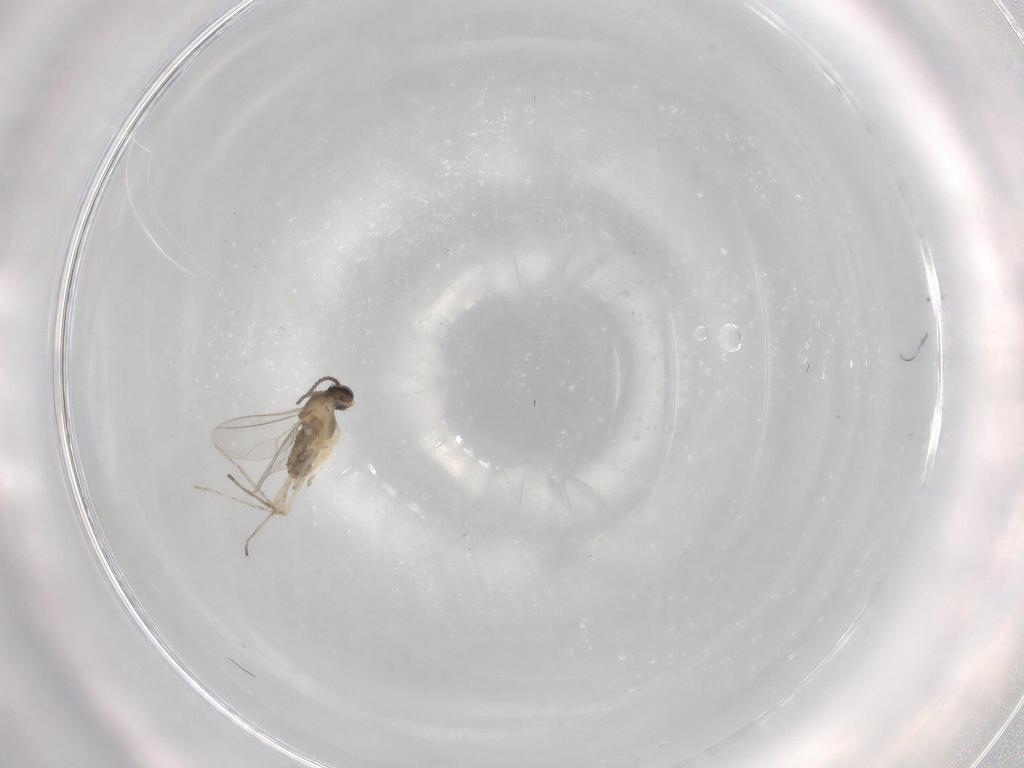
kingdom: Animalia
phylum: Arthropoda
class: Insecta
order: Diptera
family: Cecidomyiidae
